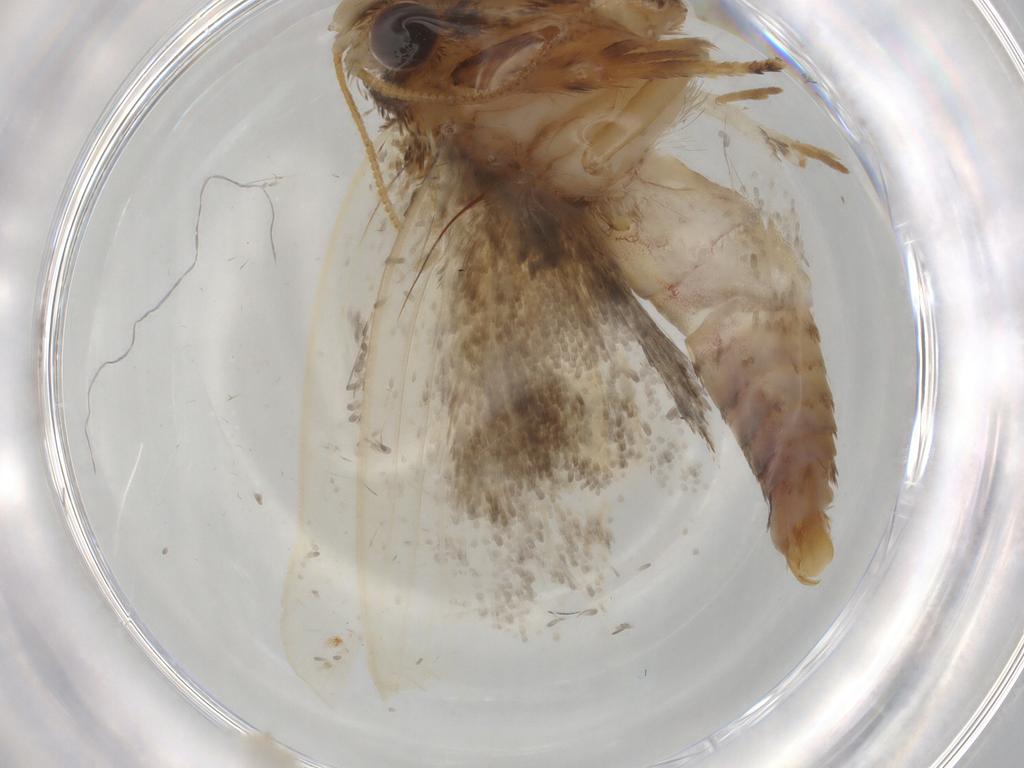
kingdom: Animalia
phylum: Arthropoda
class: Insecta
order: Lepidoptera
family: Tineidae
